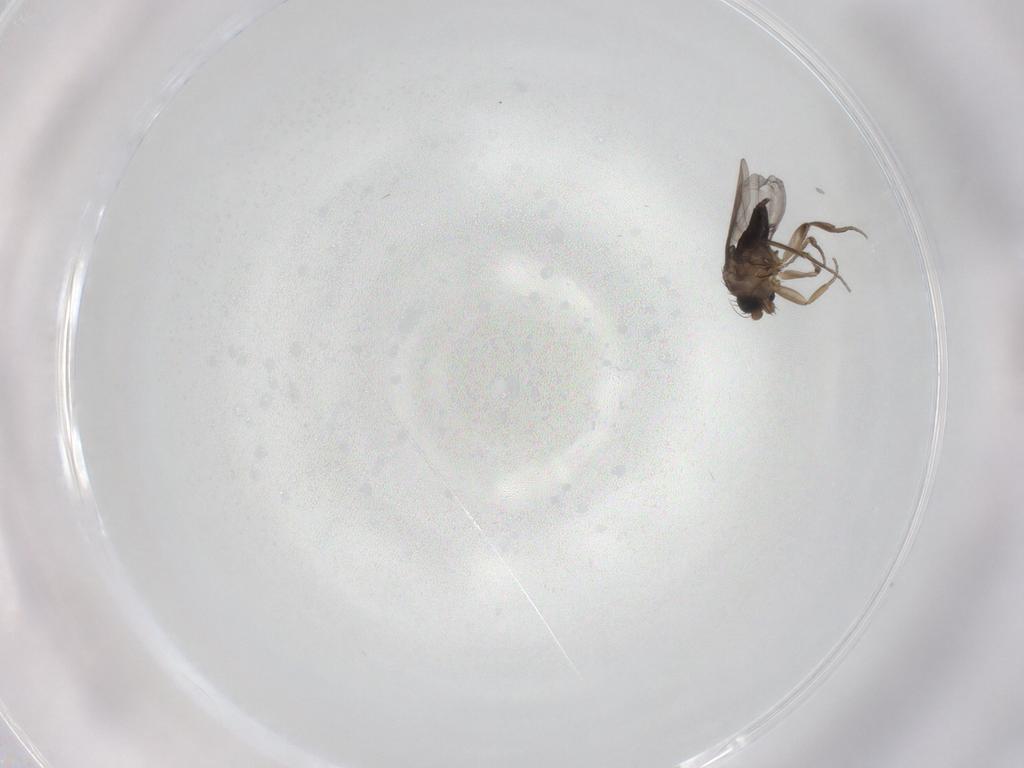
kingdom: Animalia
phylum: Arthropoda
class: Insecta
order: Diptera
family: Phoridae
